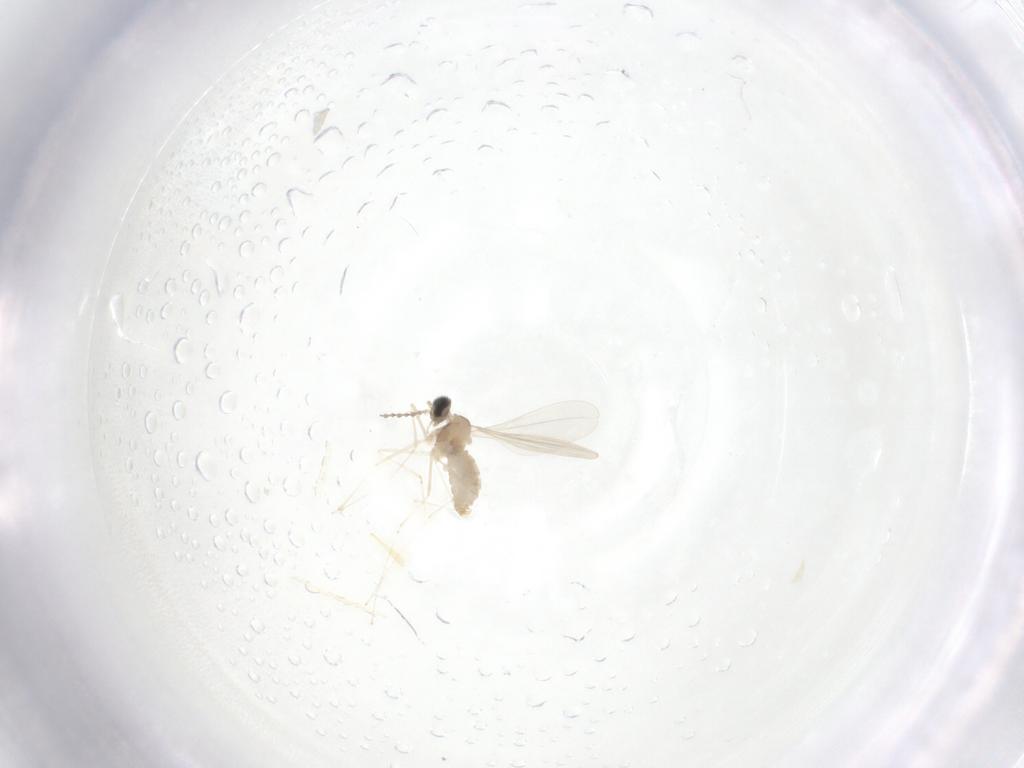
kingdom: Animalia
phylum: Arthropoda
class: Insecta
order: Diptera
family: Cecidomyiidae
